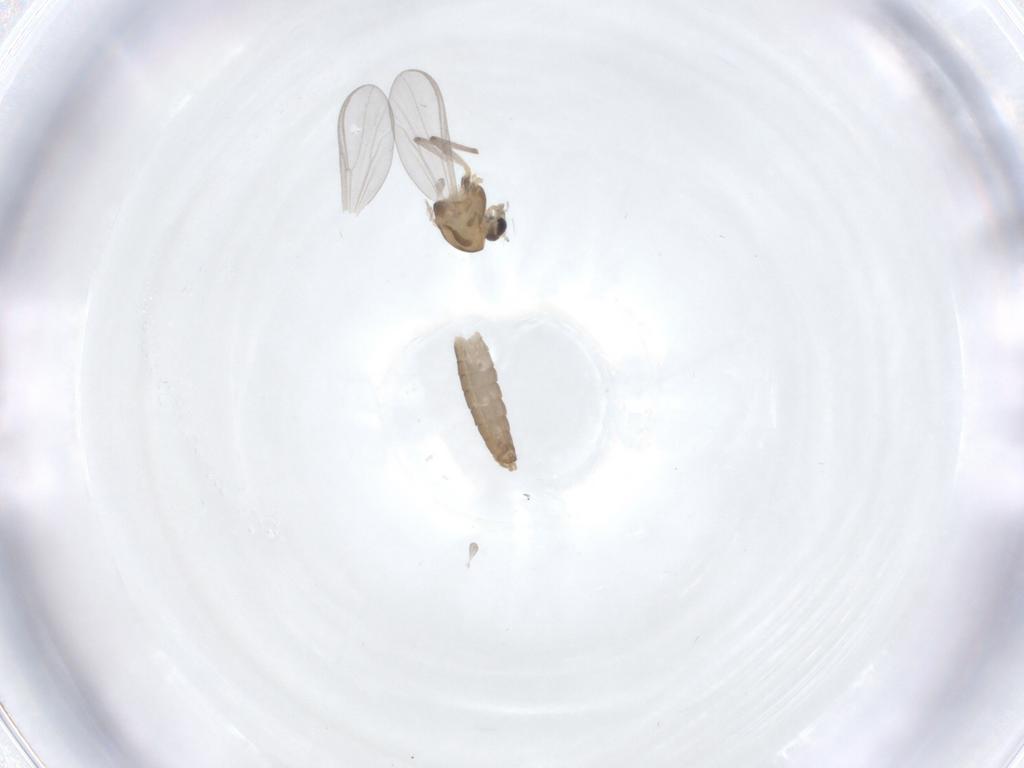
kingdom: Animalia
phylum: Arthropoda
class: Insecta
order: Diptera
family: Chironomidae
